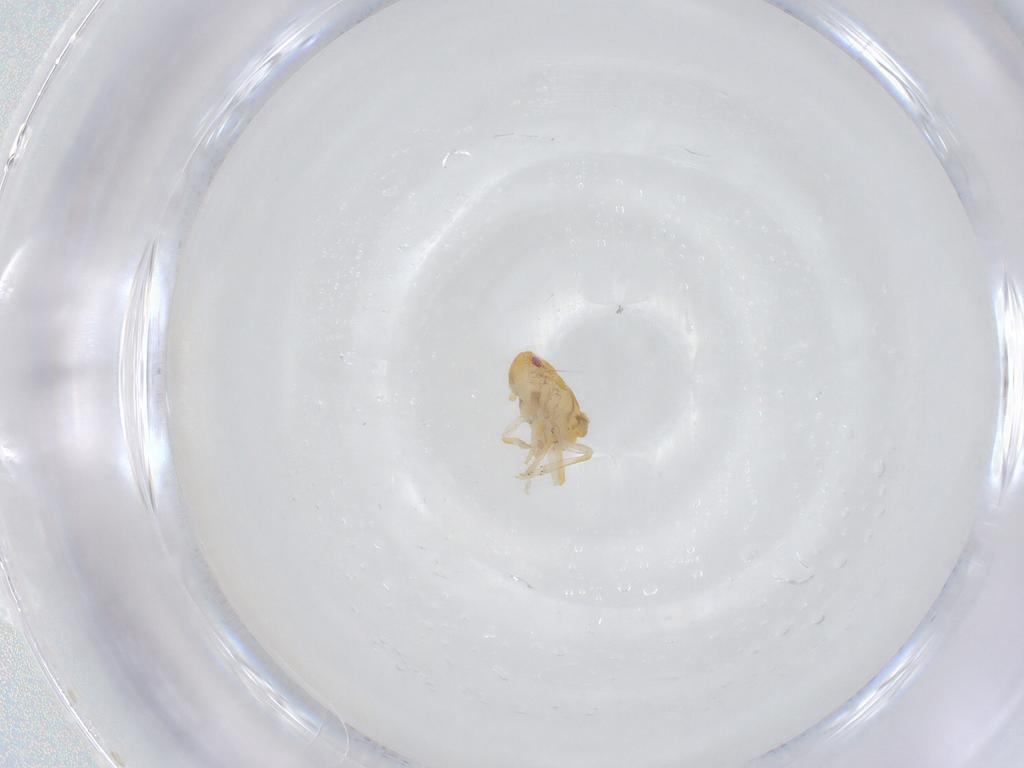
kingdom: Animalia
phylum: Arthropoda
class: Insecta
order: Hemiptera
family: Ricaniidae
